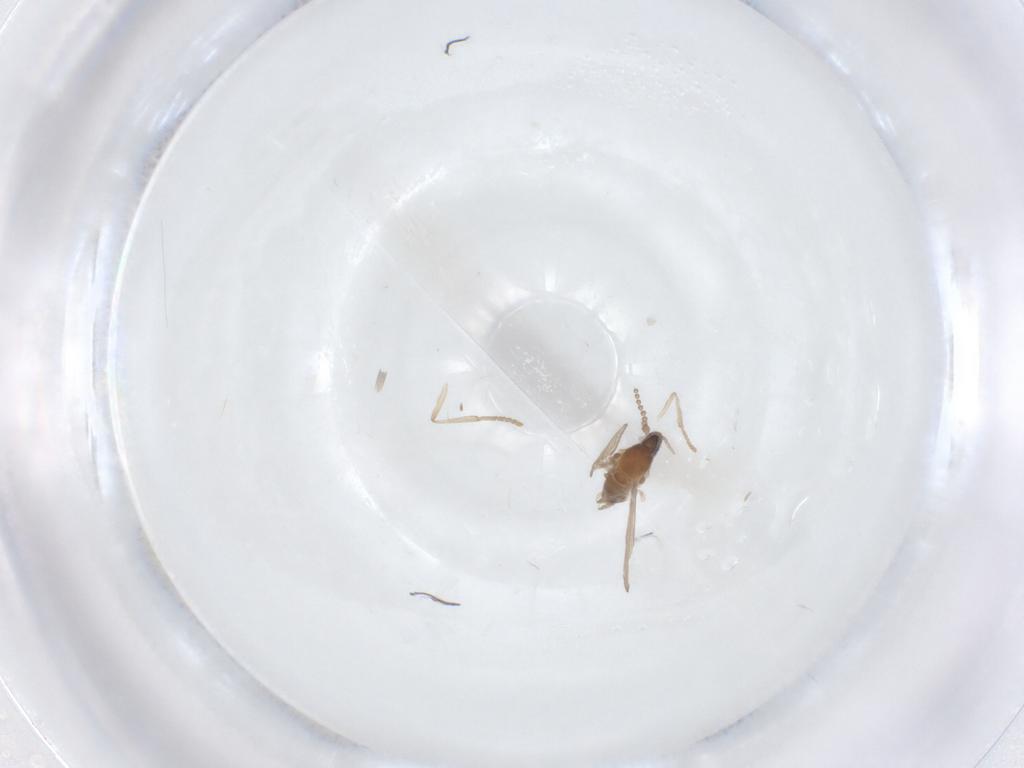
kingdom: Animalia
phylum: Arthropoda
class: Insecta
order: Diptera
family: Psychodidae
